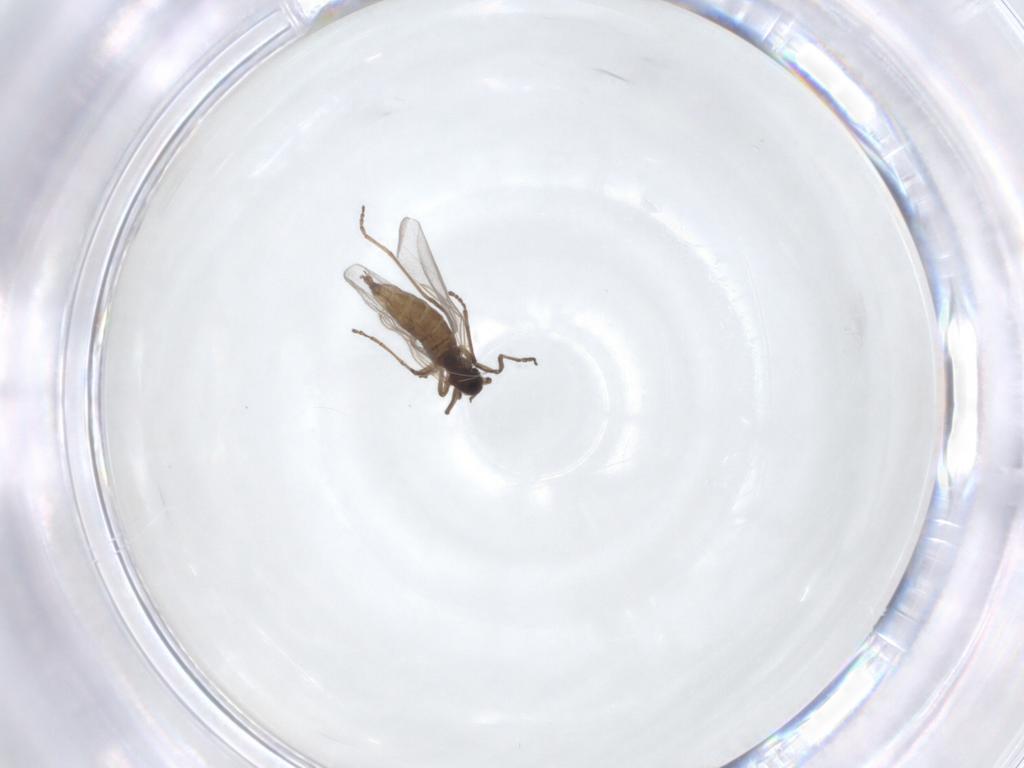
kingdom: Animalia
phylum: Arthropoda
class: Insecta
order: Diptera
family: Cecidomyiidae
